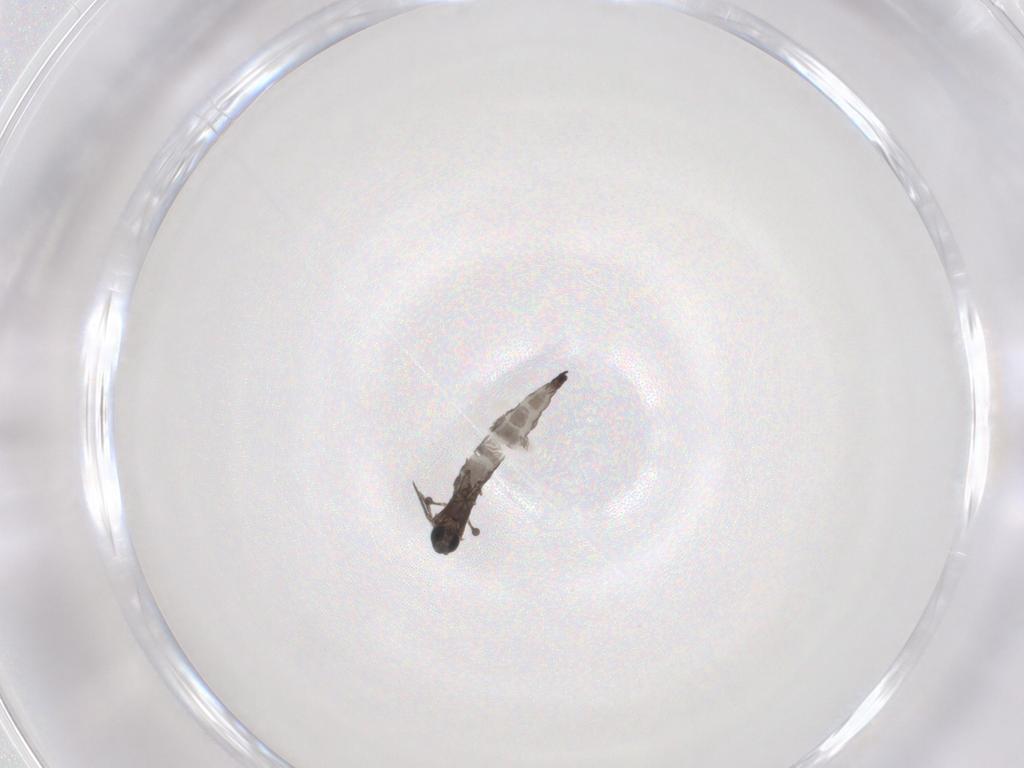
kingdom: Animalia
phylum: Arthropoda
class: Insecta
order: Diptera
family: Sciaridae
